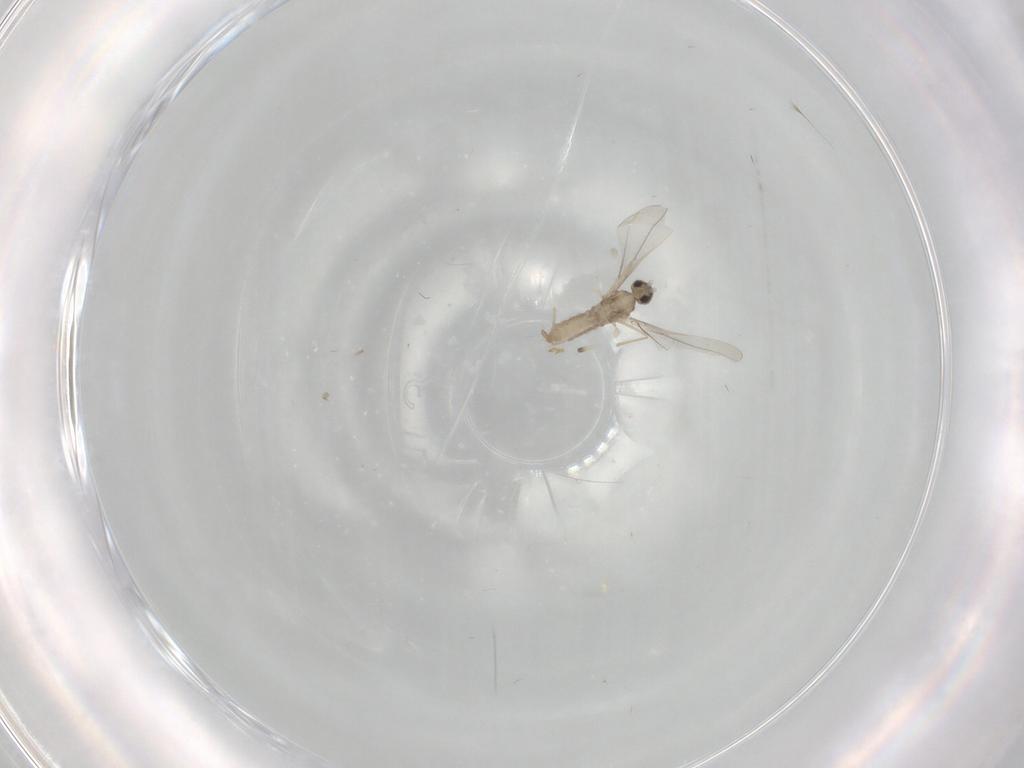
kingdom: Animalia
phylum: Arthropoda
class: Insecta
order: Diptera
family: Cecidomyiidae
